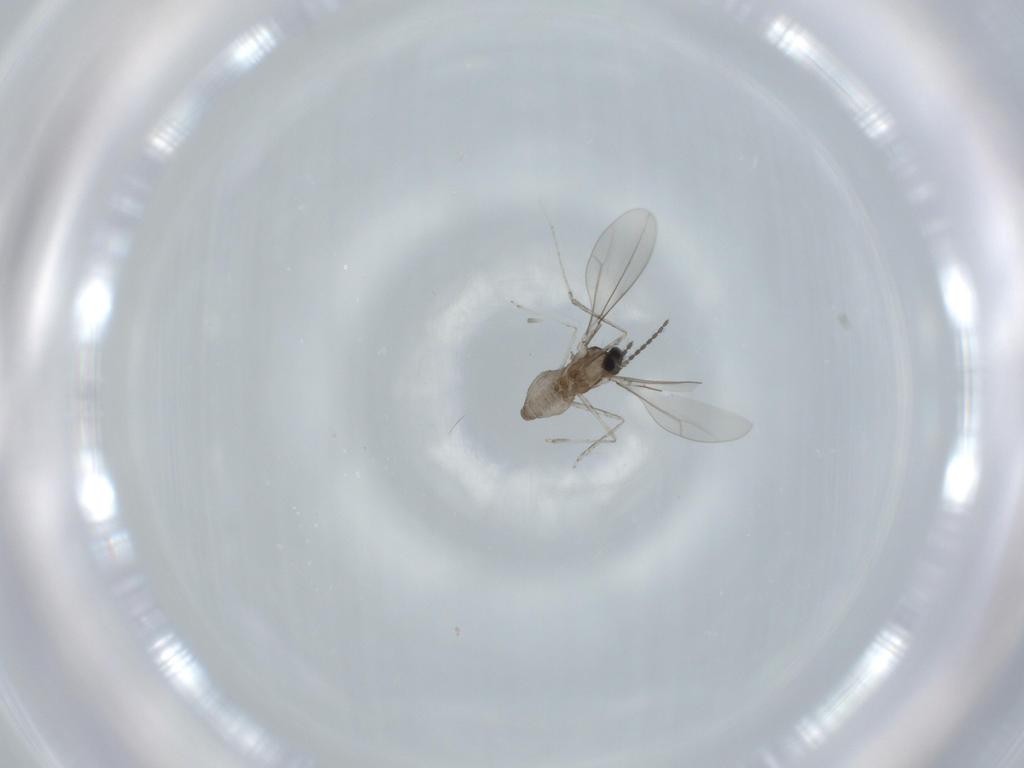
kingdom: Animalia
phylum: Arthropoda
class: Insecta
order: Diptera
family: Cecidomyiidae
